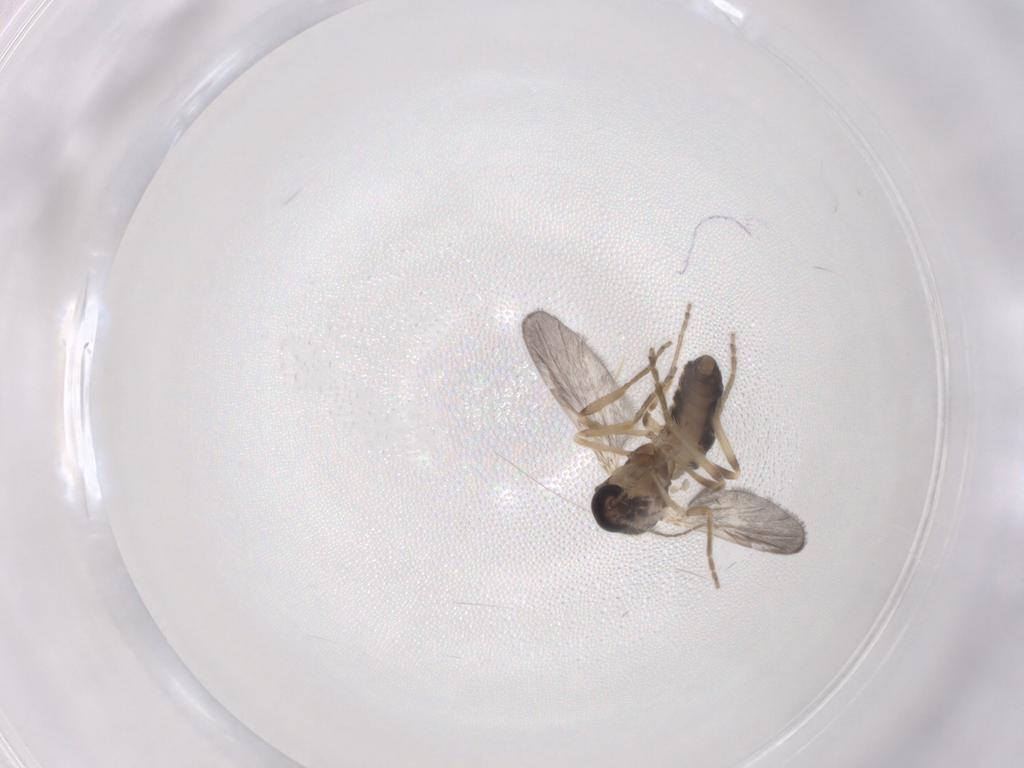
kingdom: Animalia
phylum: Arthropoda
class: Insecta
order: Diptera
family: Ceratopogonidae
